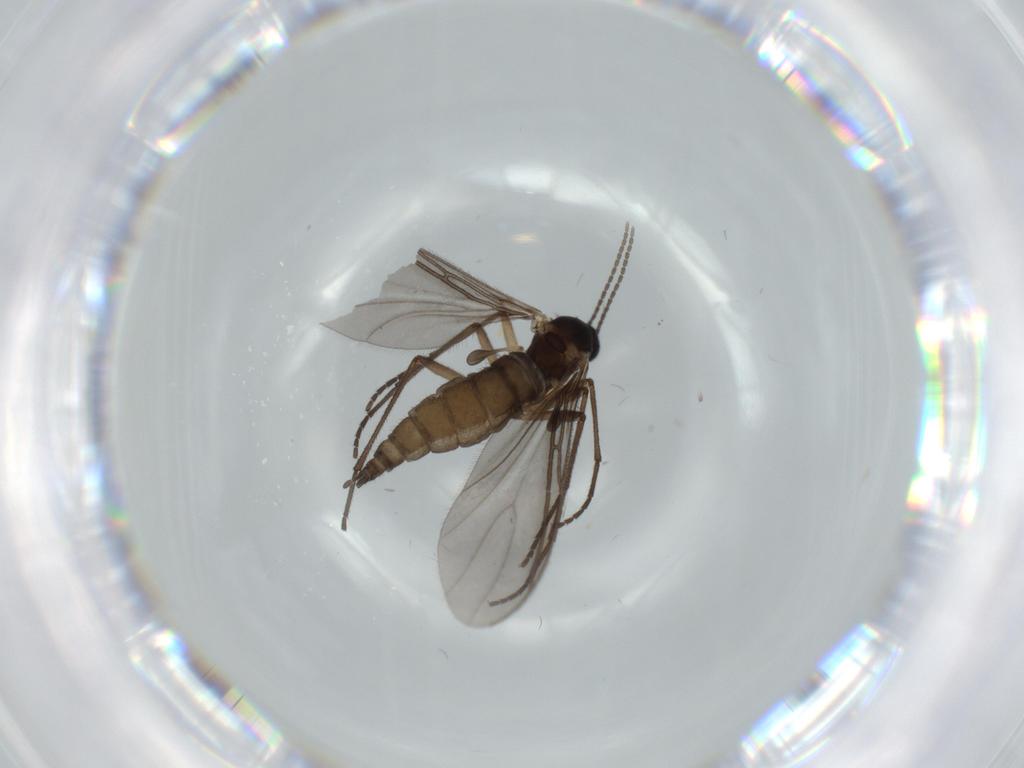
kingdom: Animalia
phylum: Arthropoda
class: Insecta
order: Diptera
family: Sciaridae
